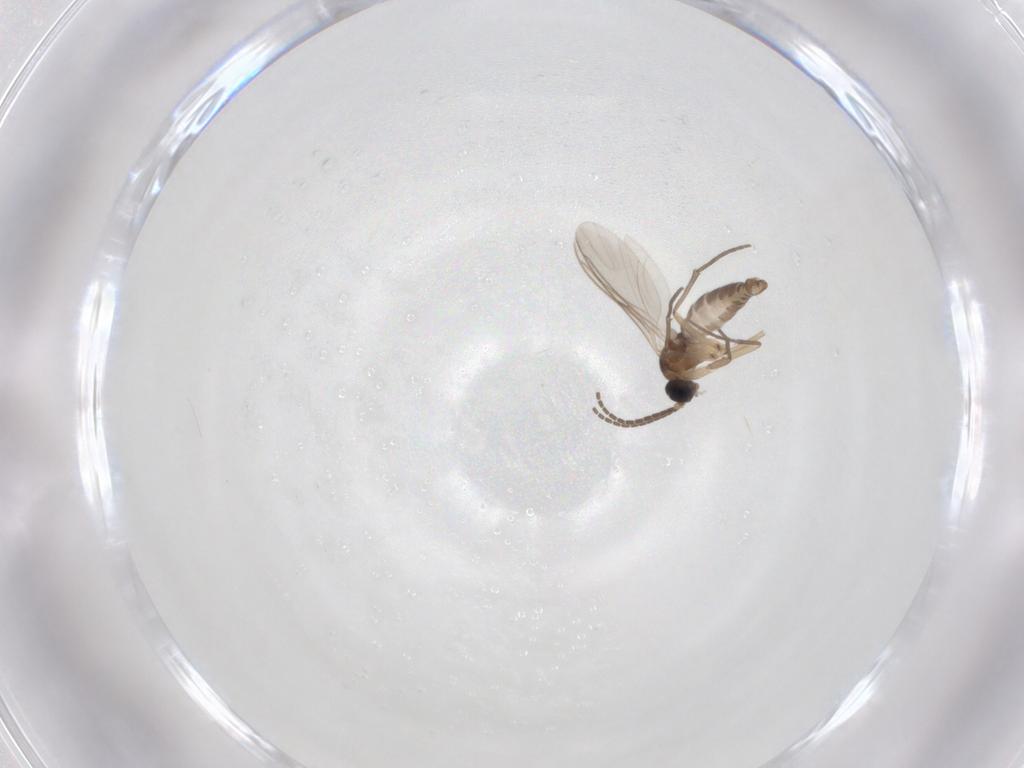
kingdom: Animalia
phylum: Arthropoda
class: Insecta
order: Diptera
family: Sciaridae
